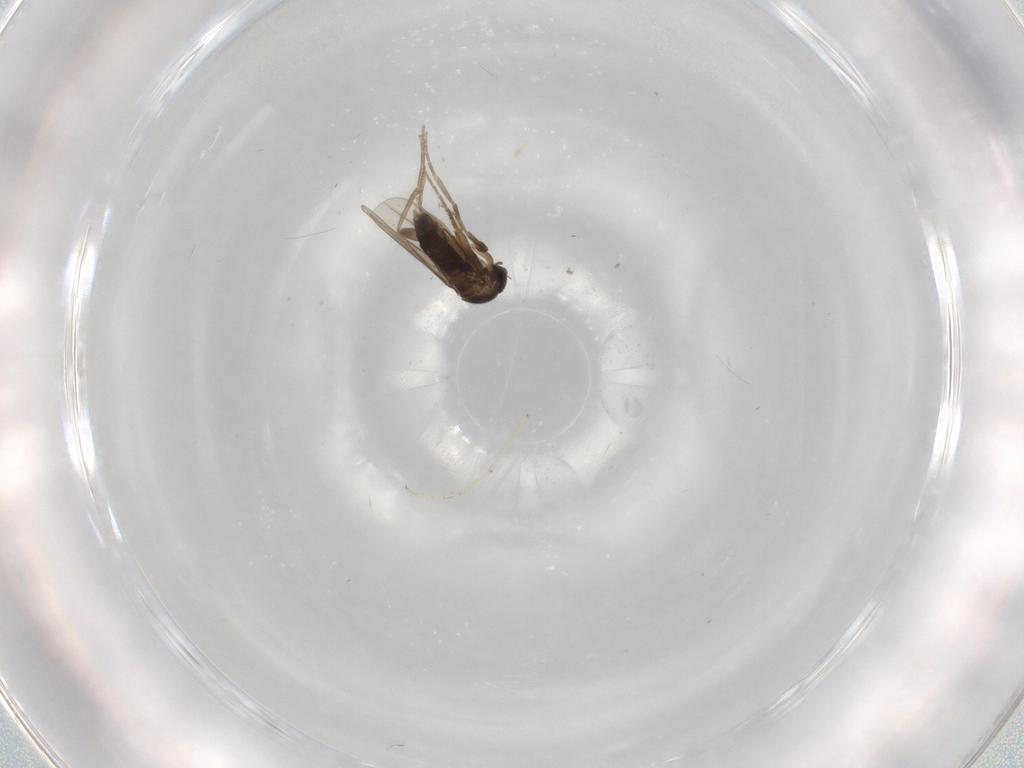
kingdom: Animalia
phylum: Arthropoda
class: Insecta
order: Diptera
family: Phoridae
